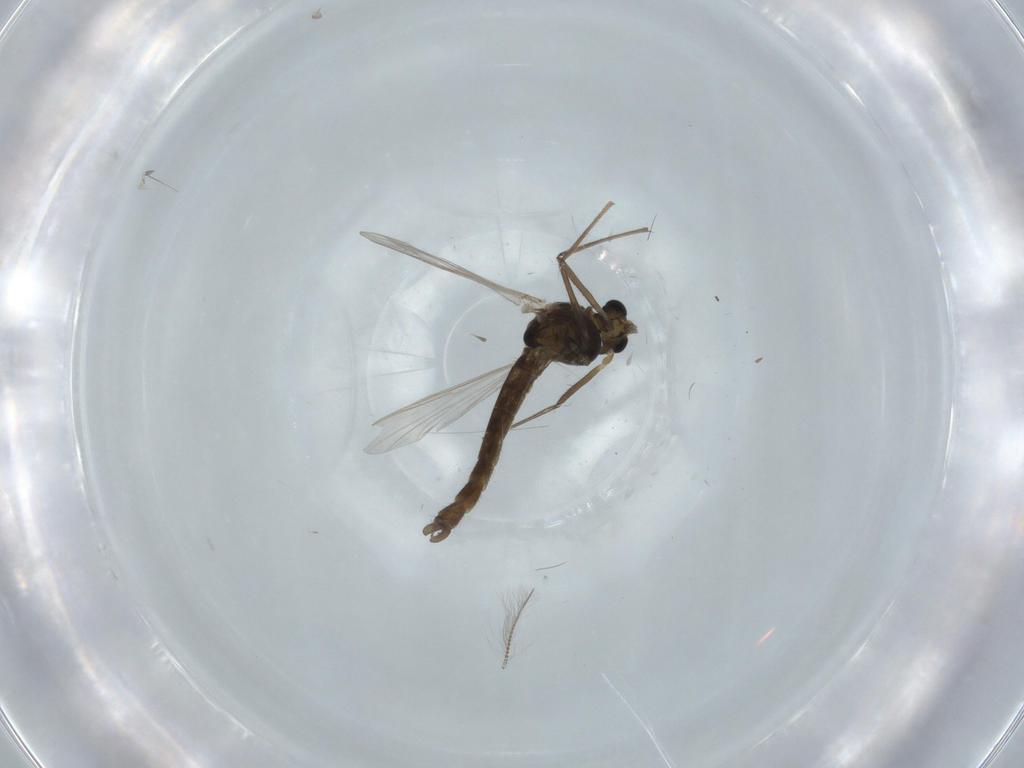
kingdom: Animalia
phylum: Arthropoda
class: Insecta
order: Diptera
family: Chironomidae
